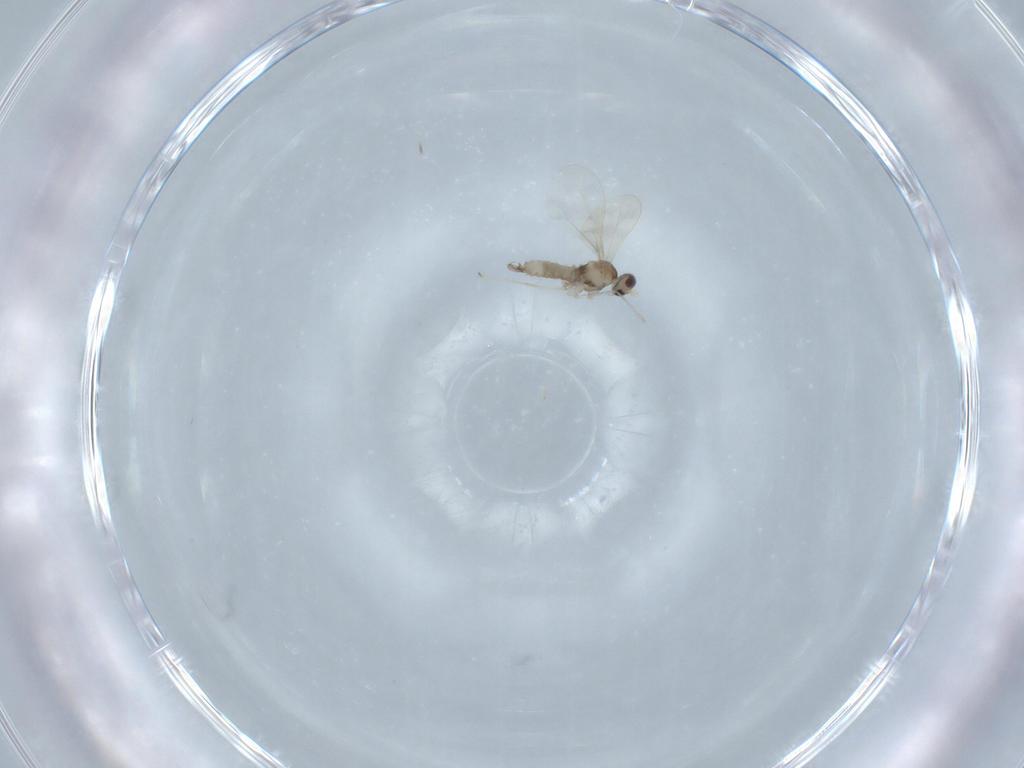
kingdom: Animalia
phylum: Arthropoda
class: Insecta
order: Diptera
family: Cecidomyiidae
